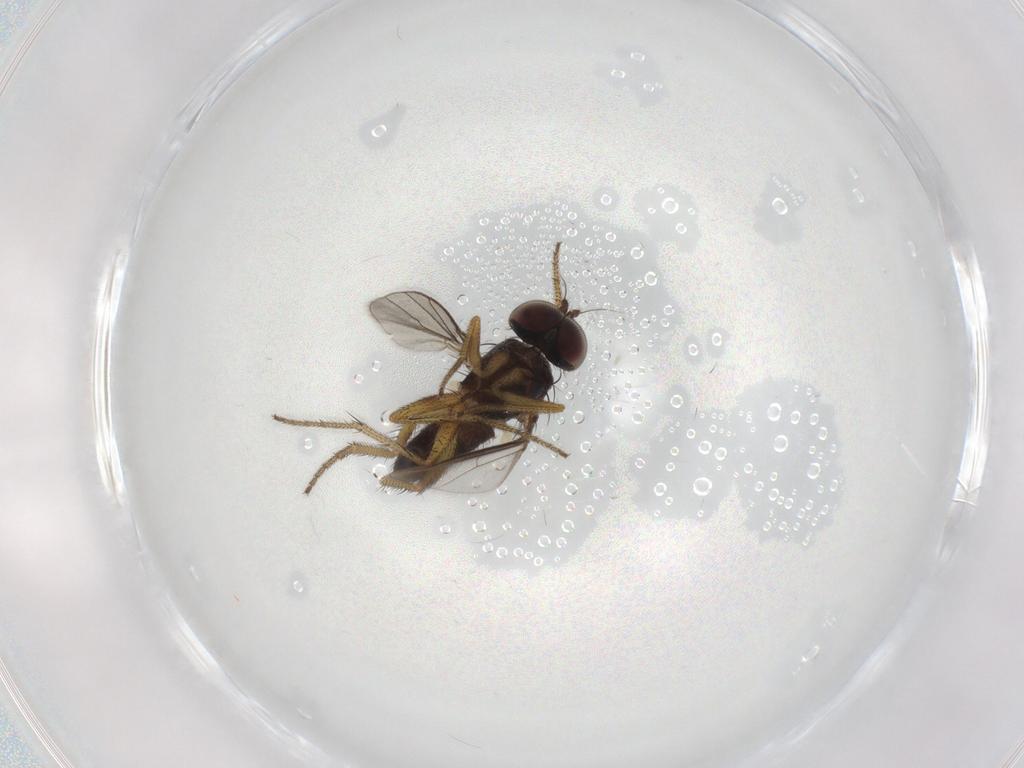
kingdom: Animalia
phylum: Arthropoda
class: Insecta
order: Diptera
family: Dolichopodidae
